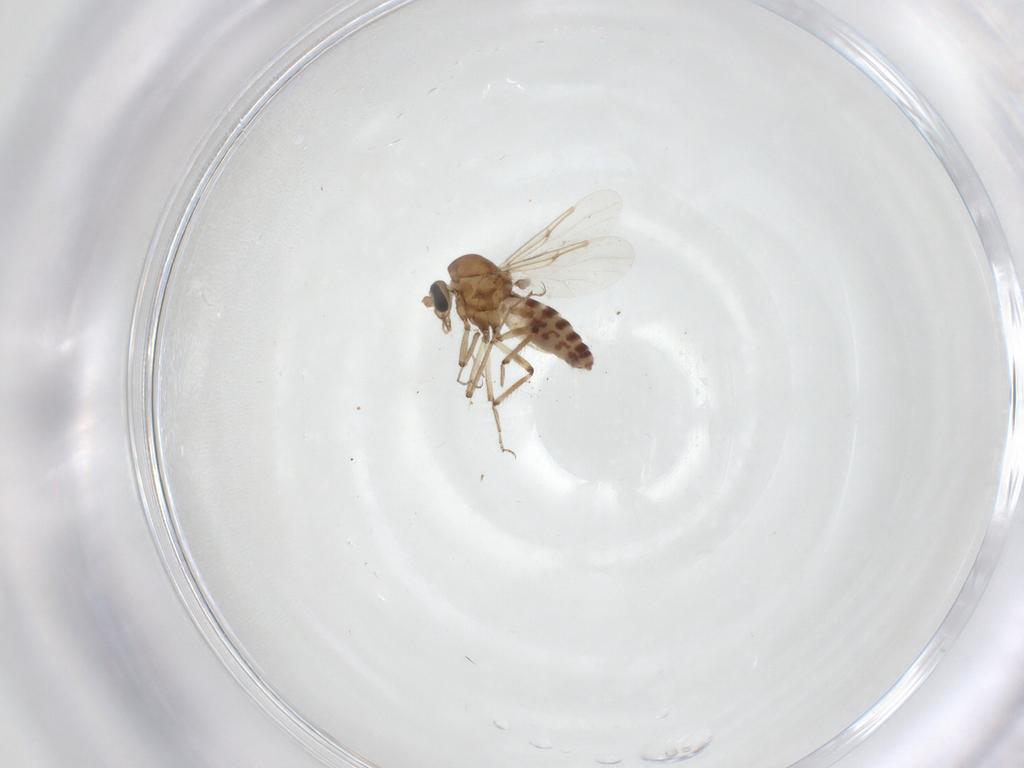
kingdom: Animalia
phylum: Arthropoda
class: Insecta
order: Diptera
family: Ceratopogonidae
